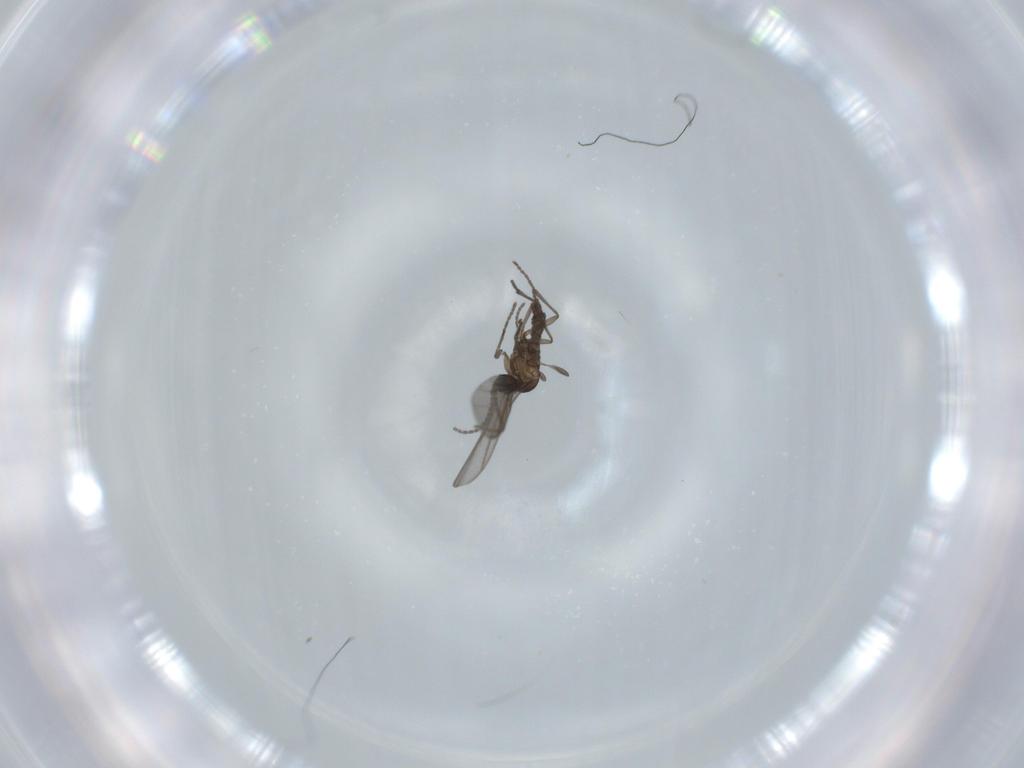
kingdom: Animalia
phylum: Arthropoda
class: Insecta
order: Diptera
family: Sciaridae
